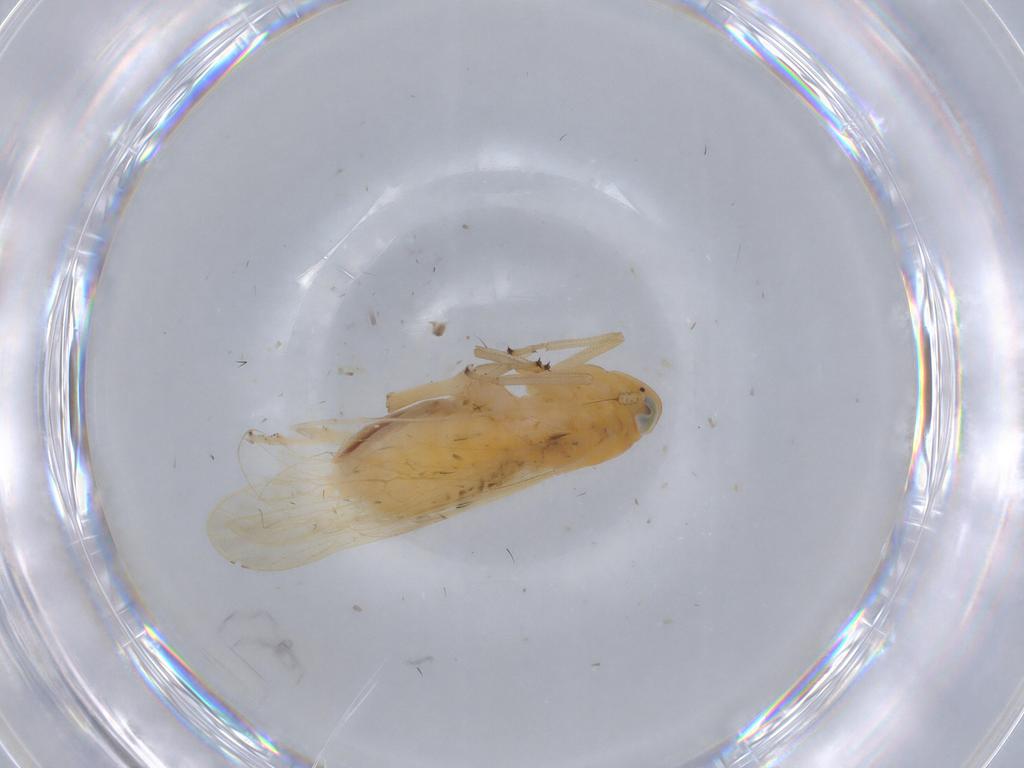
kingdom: Animalia
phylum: Arthropoda
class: Insecta
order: Hemiptera
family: Delphacidae
